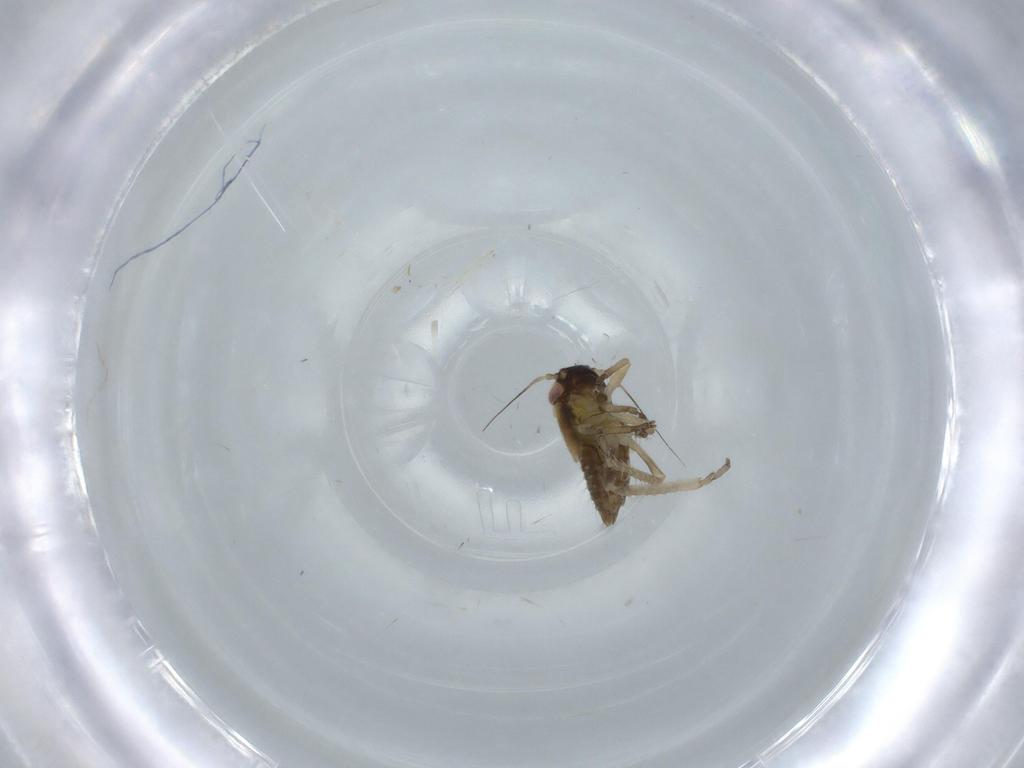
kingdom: Animalia
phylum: Arthropoda
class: Insecta
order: Hemiptera
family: Cicadellidae
